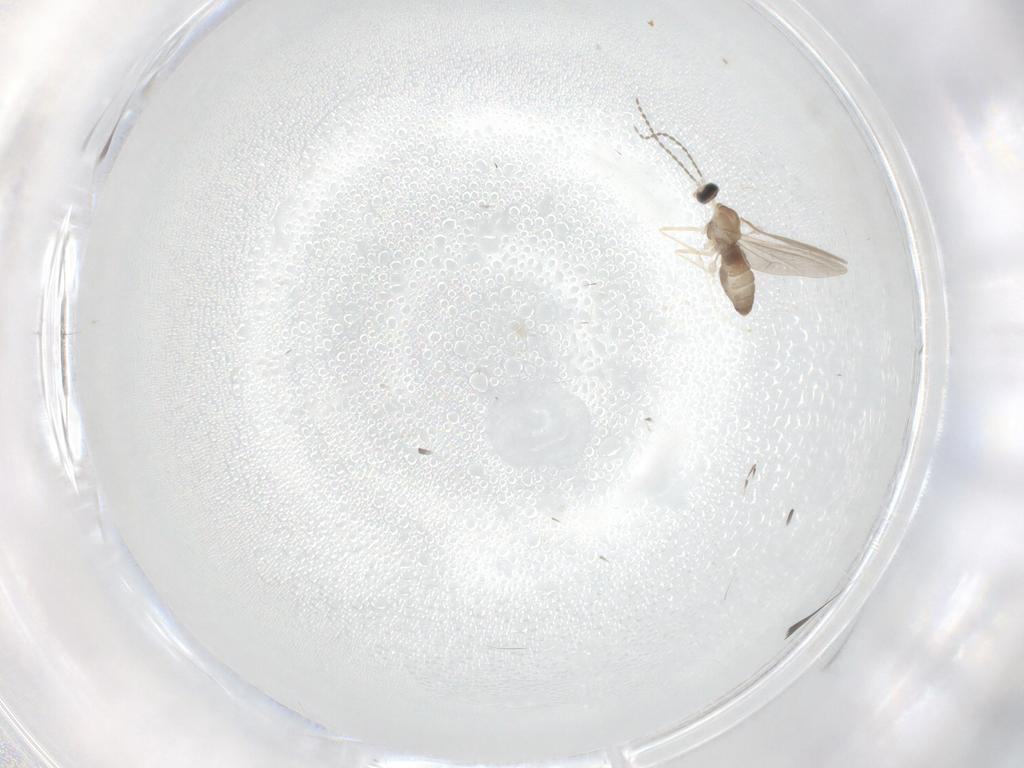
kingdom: Animalia
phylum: Arthropoda
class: Insecta
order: Diptera
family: Cecidomyiidae
